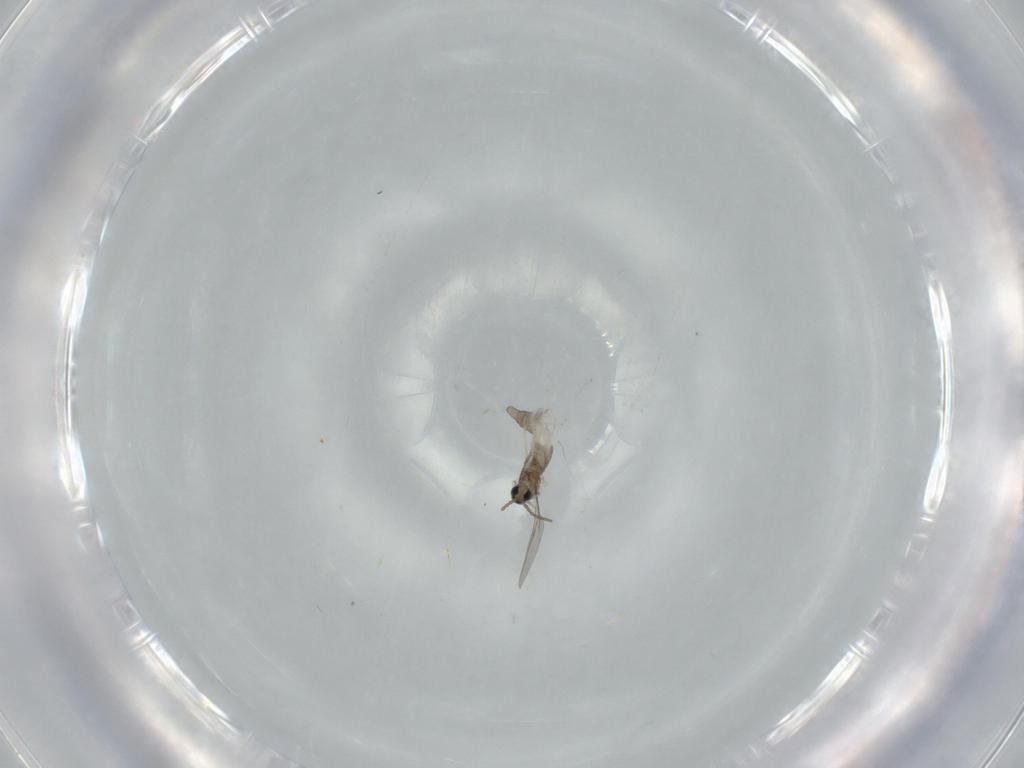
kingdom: Animalia
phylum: Arthropoda
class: Insecta
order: Diptera
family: Cecidomyiidae
